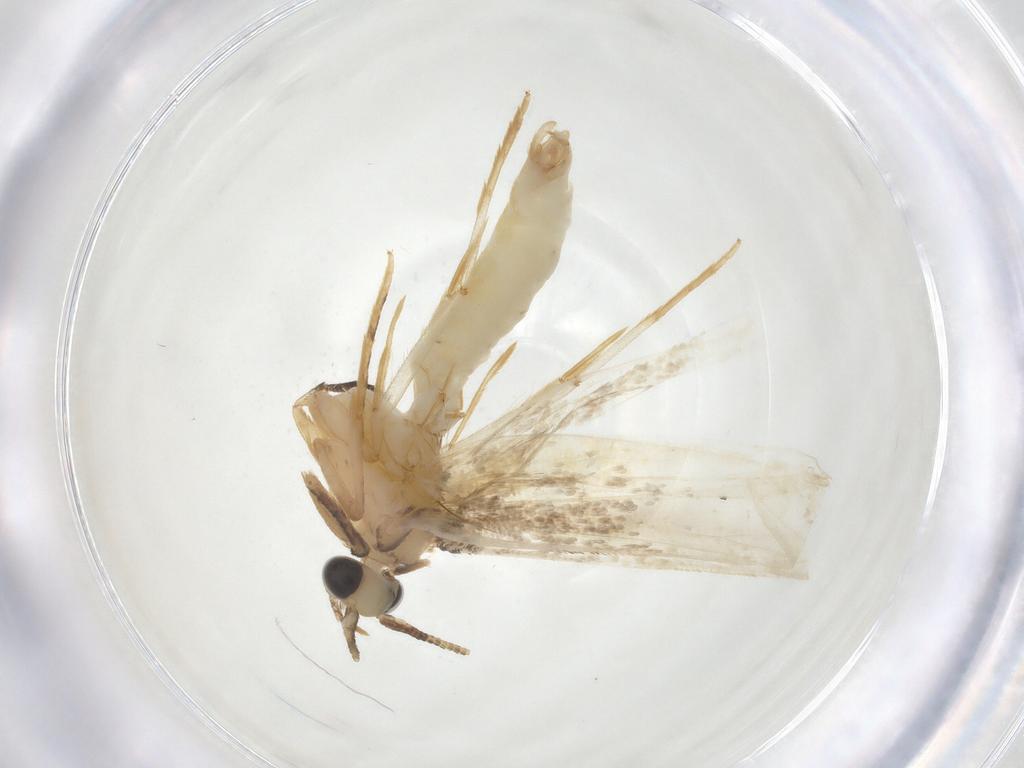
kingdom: Animalia
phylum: Arthropoda
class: Insecta
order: Lepidoptera
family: Tineidae
